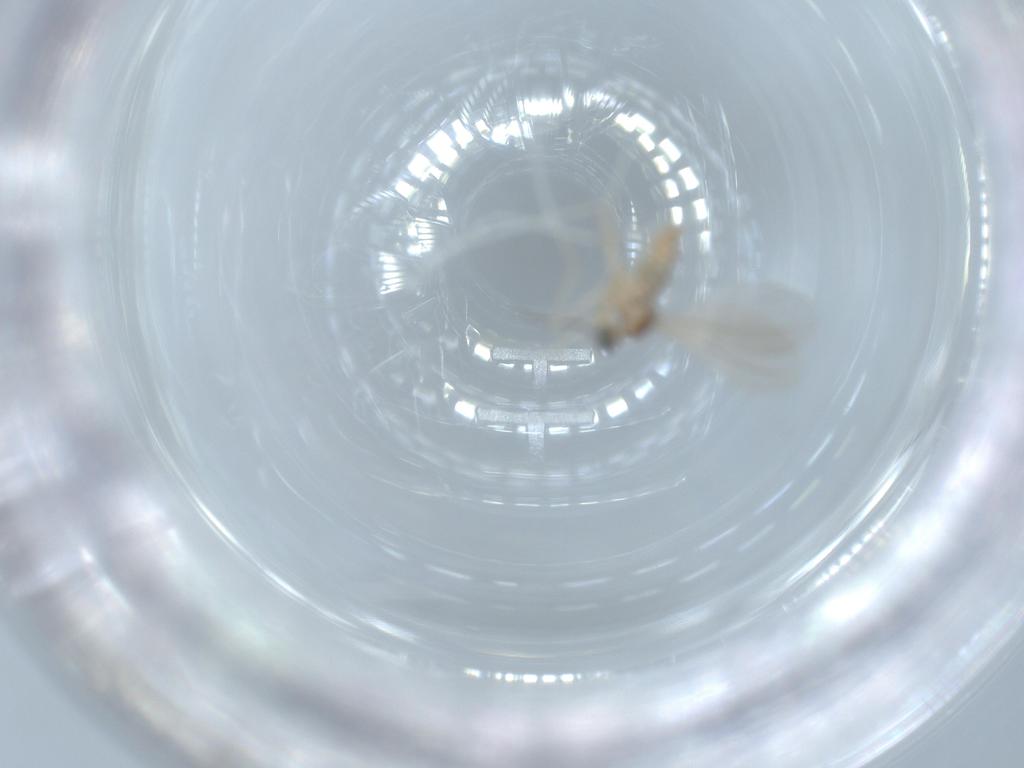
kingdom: Animalia
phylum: Arthropoda
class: Insecta
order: Diptera
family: Cecidomyiidae
